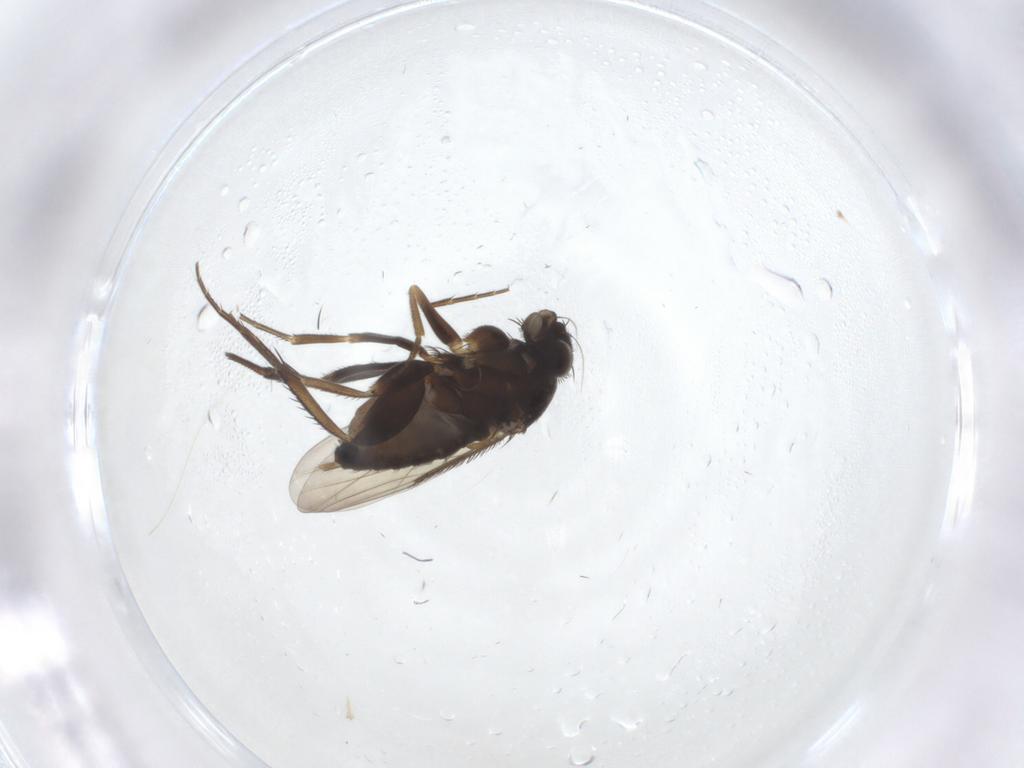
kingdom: Animalia
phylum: Arthropoda
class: Insecta
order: Diptera
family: Phoridae
